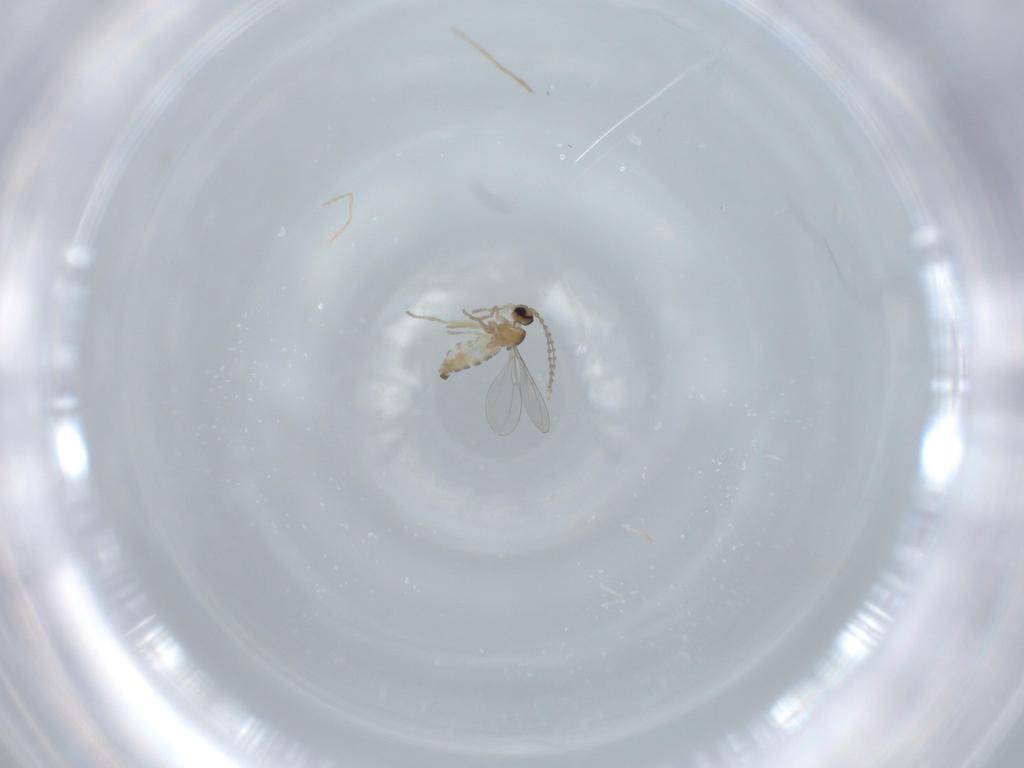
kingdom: Animalia
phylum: Arthropoda
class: Insecta
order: Diptera
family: Cecidomyiidae
